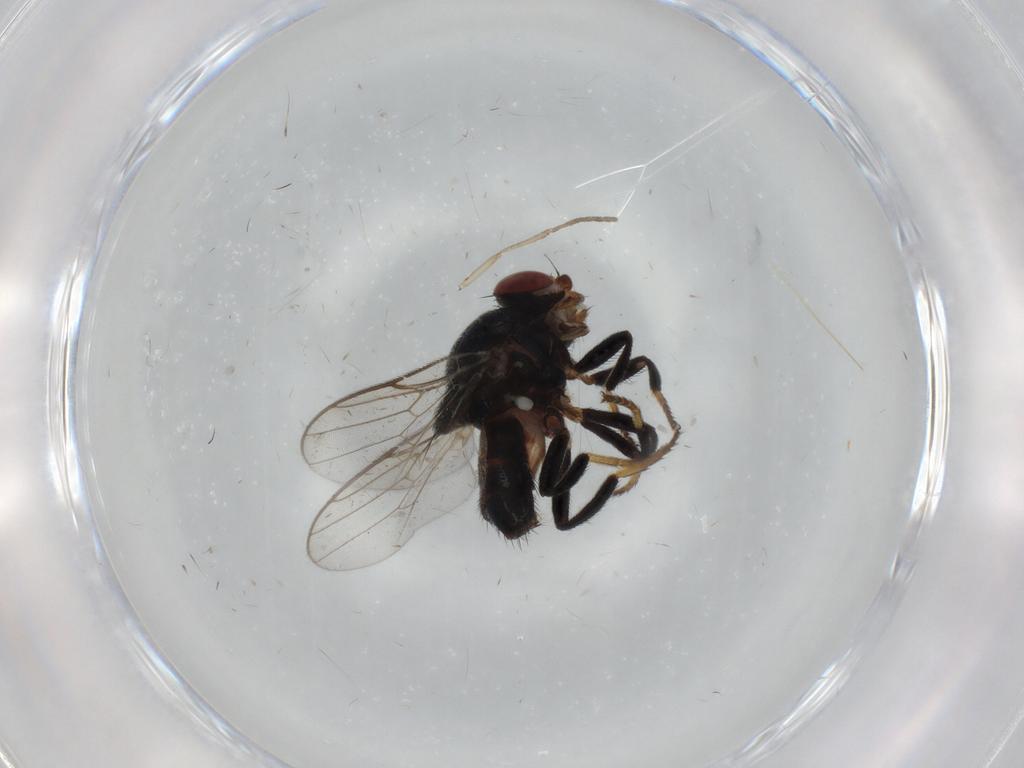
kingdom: Animalia
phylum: Arthropoda
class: Insecta
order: Diptera
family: Chloropidae
